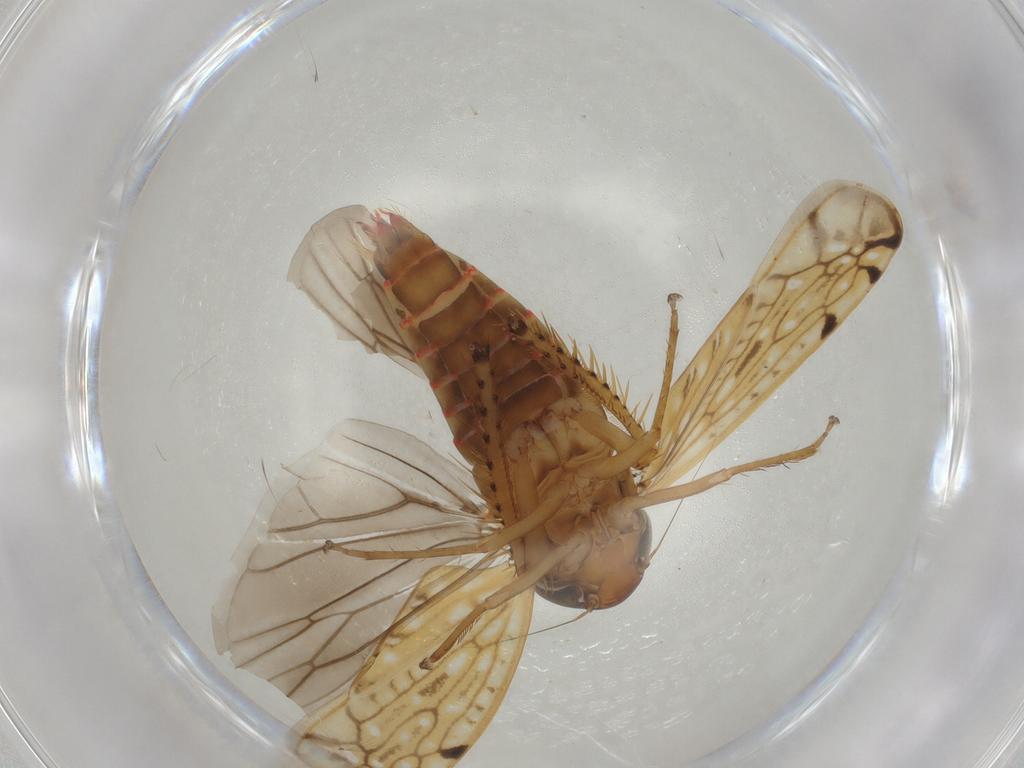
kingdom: Animalia
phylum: Arthropoda
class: Insecta
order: Hemiptera
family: Cicadellidae
